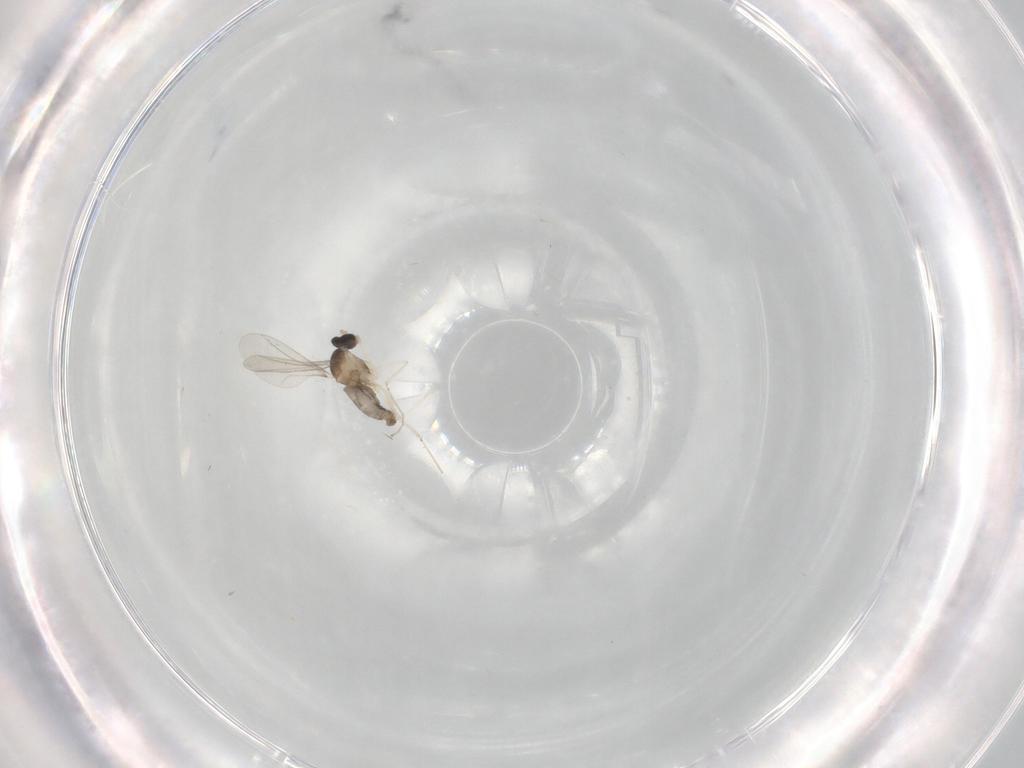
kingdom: Animalia
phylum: Arthropoda
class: Insecta
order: Diptera
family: Cecidomyiidae
